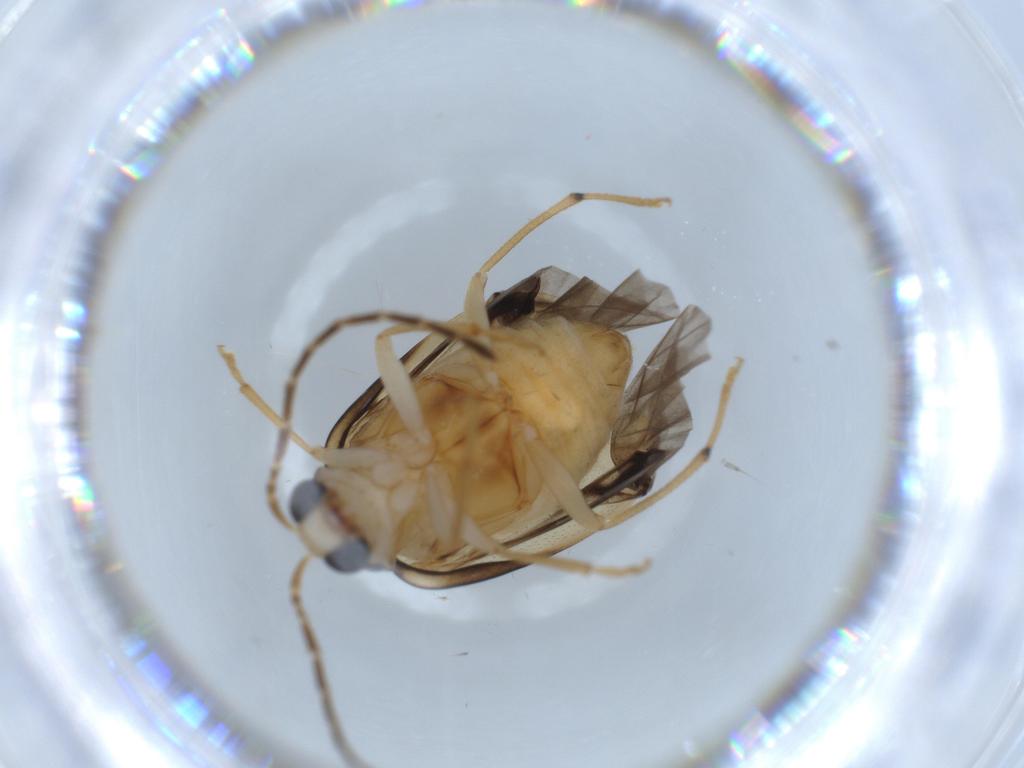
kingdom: Animalia
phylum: Arthropoda
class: Insecta
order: Coleoptera
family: Chrysomelidae
